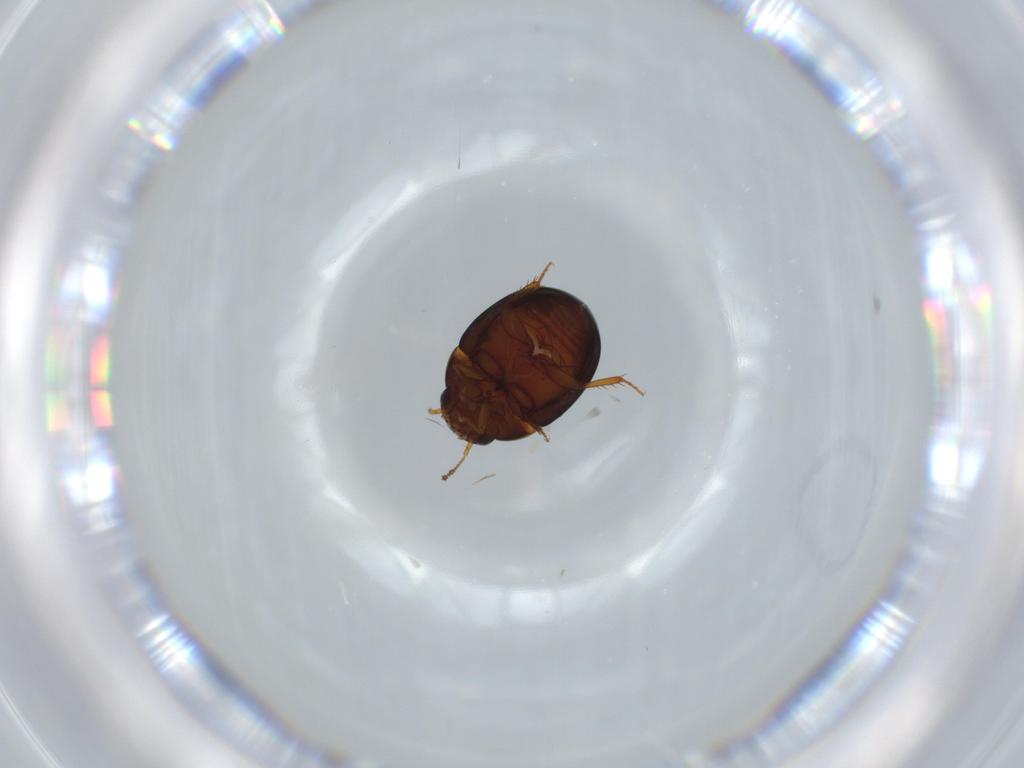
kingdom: Animalia
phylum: Arthropoda
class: Insecta
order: Coleoptera
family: Leiodidae
